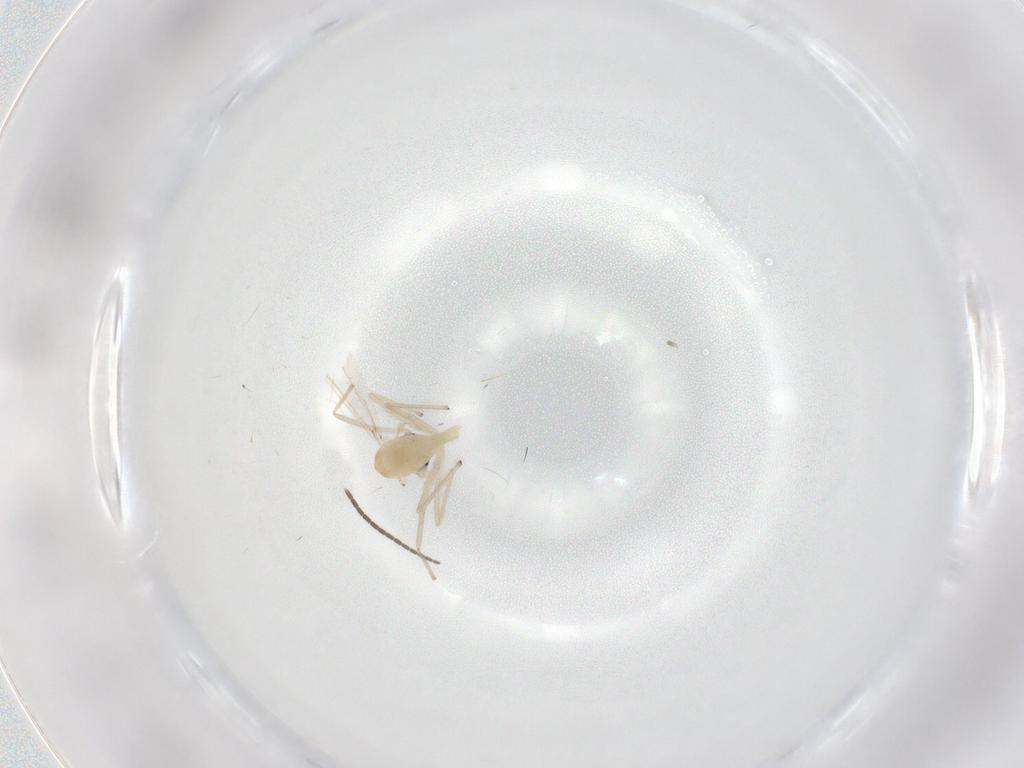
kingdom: Animalia
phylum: Arthropoda
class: Insecta
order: Diptera
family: Chironomidae
